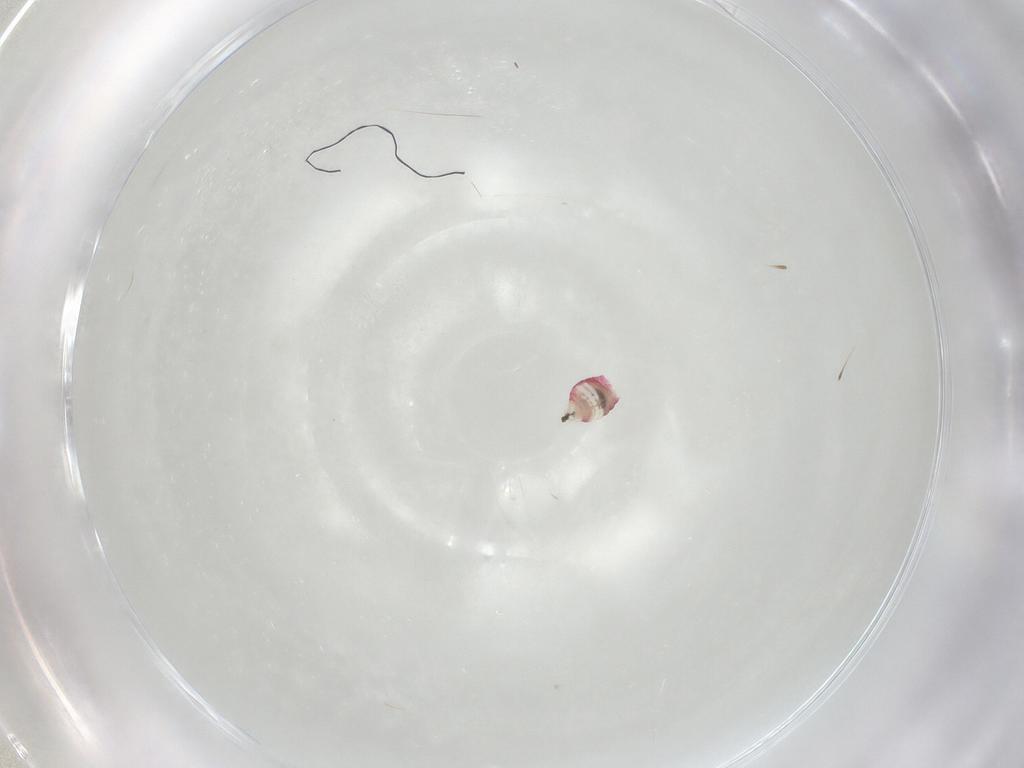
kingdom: Animalia
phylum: Arthropoda
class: Insecta
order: Psocodea
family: Caeciliusidae
